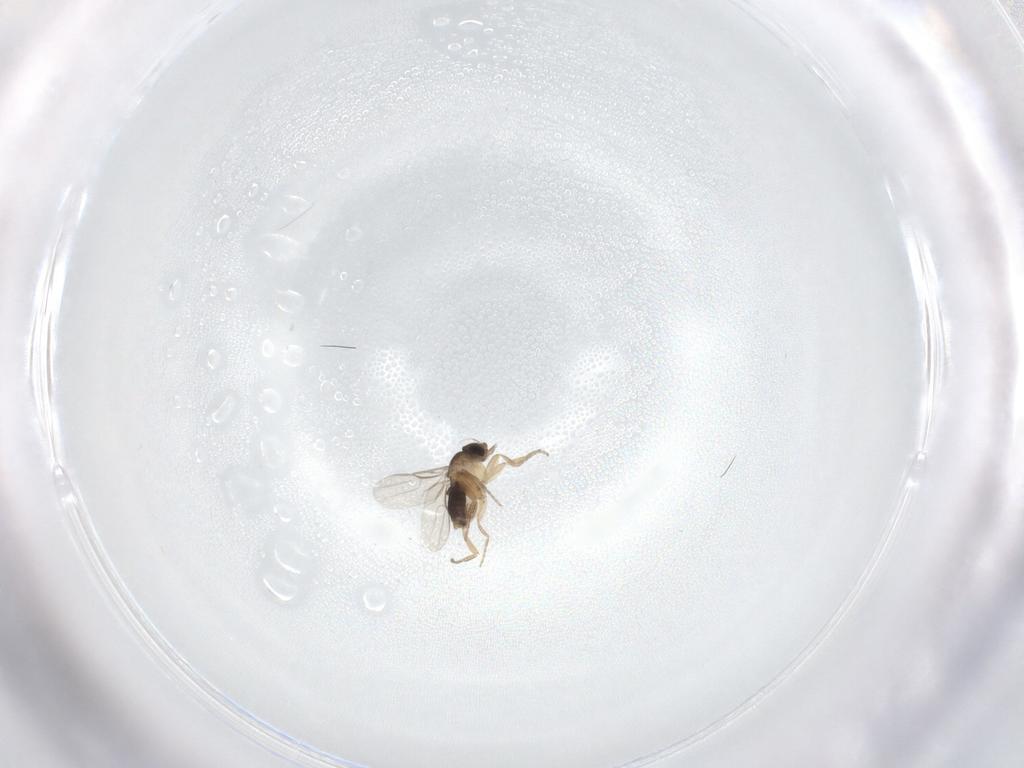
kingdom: Animalia
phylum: Arthropoda
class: Insecta
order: Diptera
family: Phoridae
